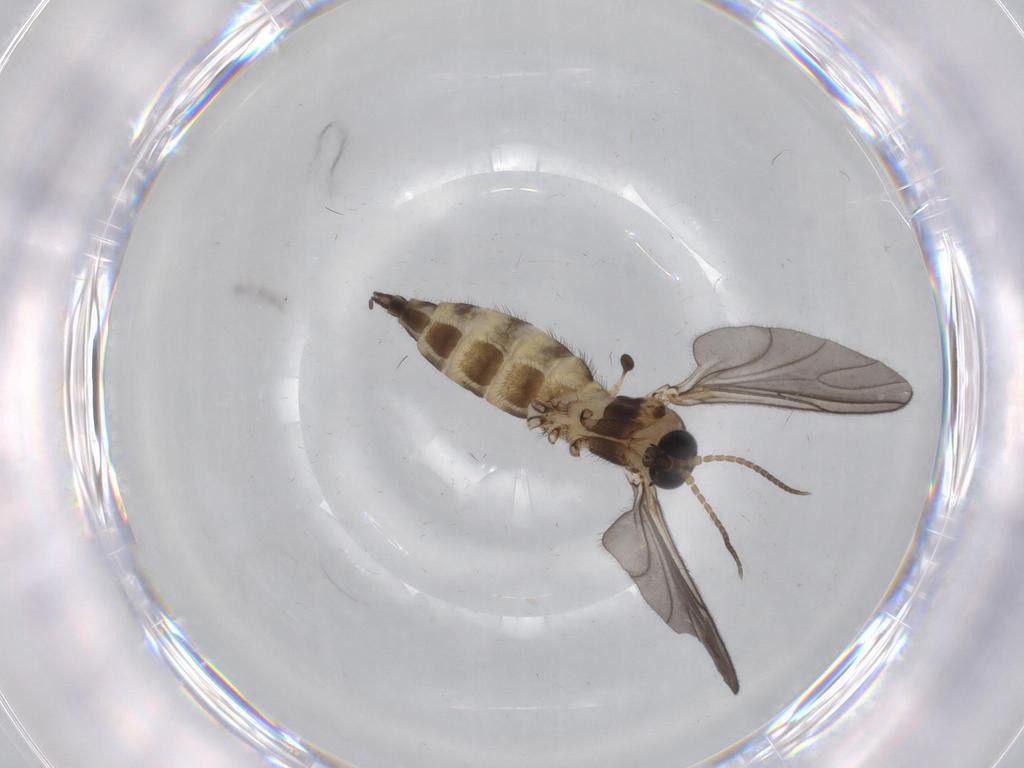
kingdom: Animalia
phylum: Arthropoda
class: Insecta
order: Diptera
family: Sciaridae
